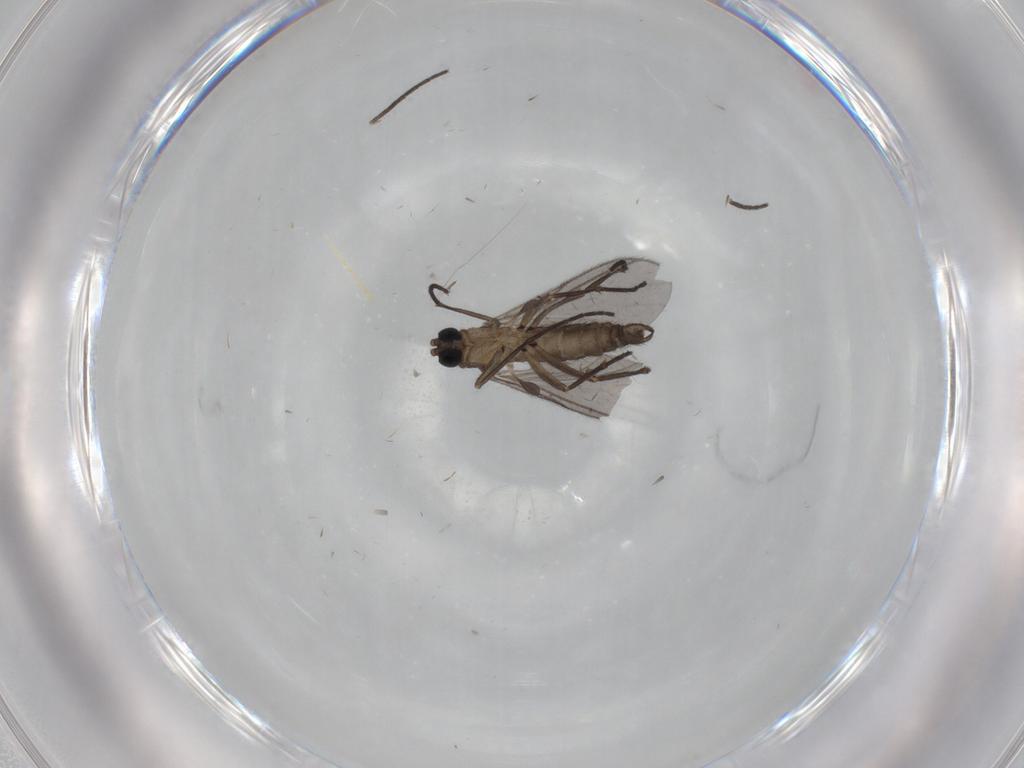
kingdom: Animalia
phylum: Arthropoda
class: Insecta
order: Diptera
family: Sciaridae
